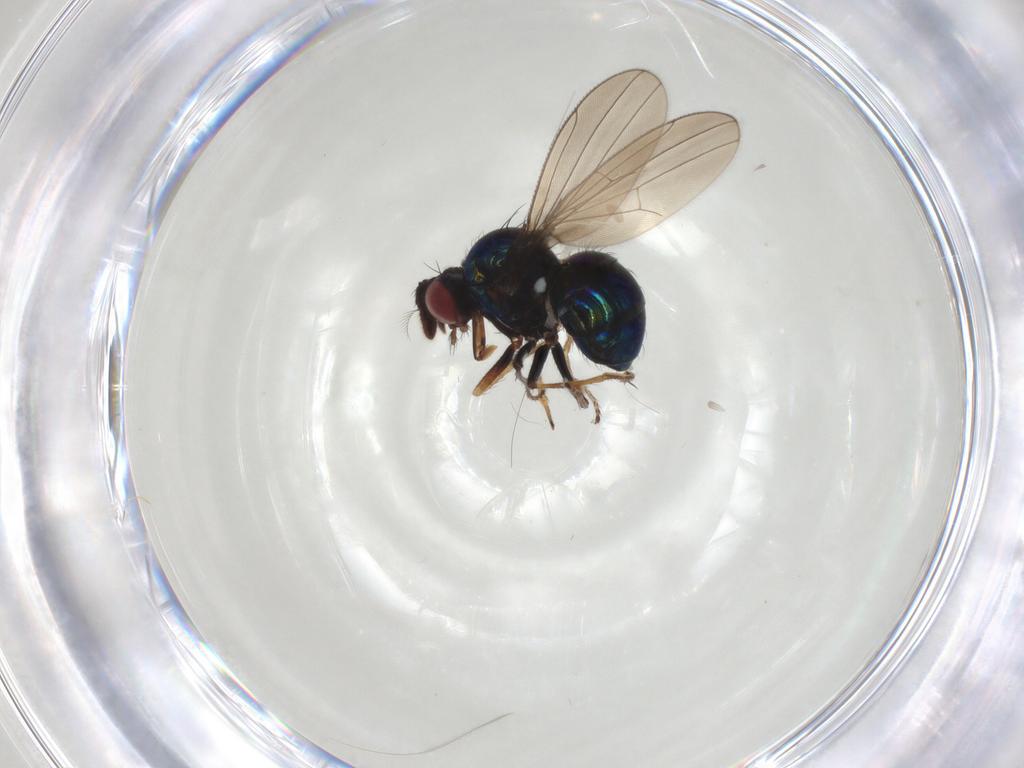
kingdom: Animalia
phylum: Arthropoda
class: Insecta
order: Diptera
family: Ephydridae
